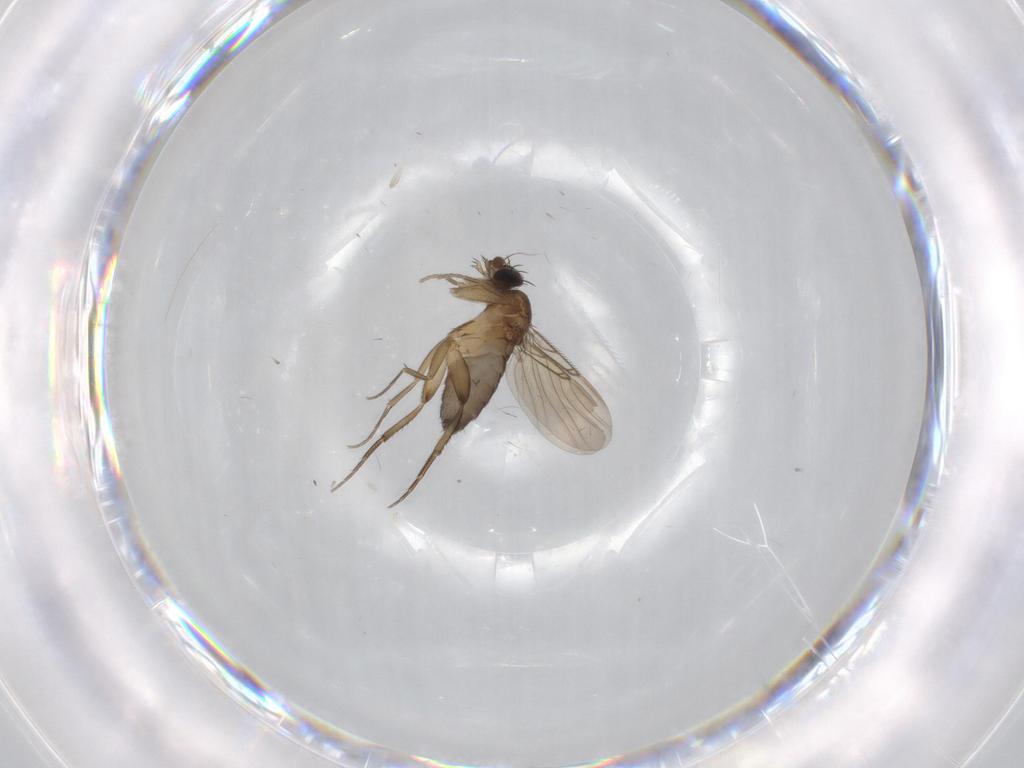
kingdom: Animalia
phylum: Arthropoda
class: Insecta
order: Diptera
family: Phoridae
